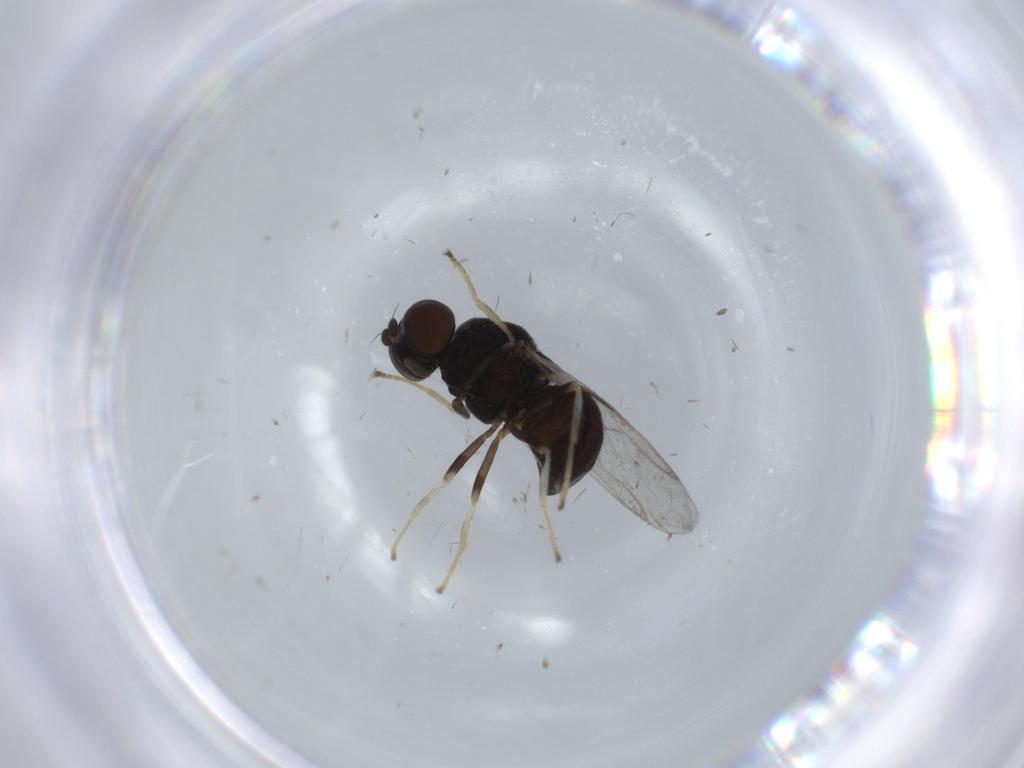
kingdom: Animalia
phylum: Arthropoda
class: Insecta
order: Diptera
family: Stratiomyidae
